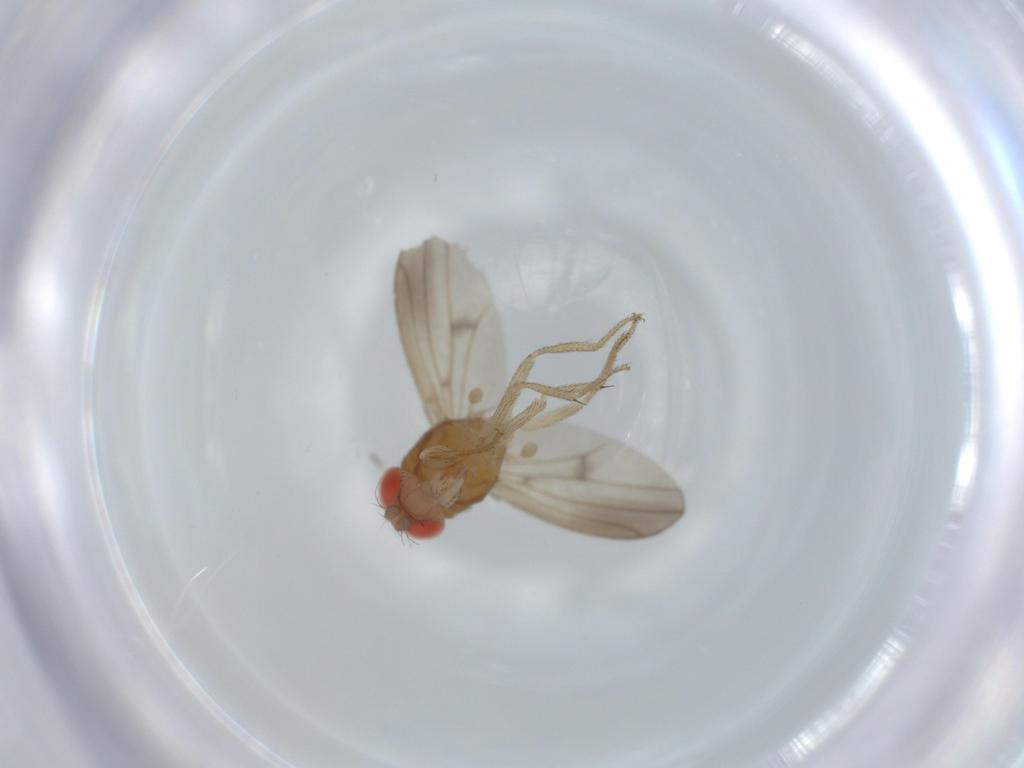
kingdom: Animalia
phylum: Arthropoda
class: Insecta
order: Diptera
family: Drosophilidae
